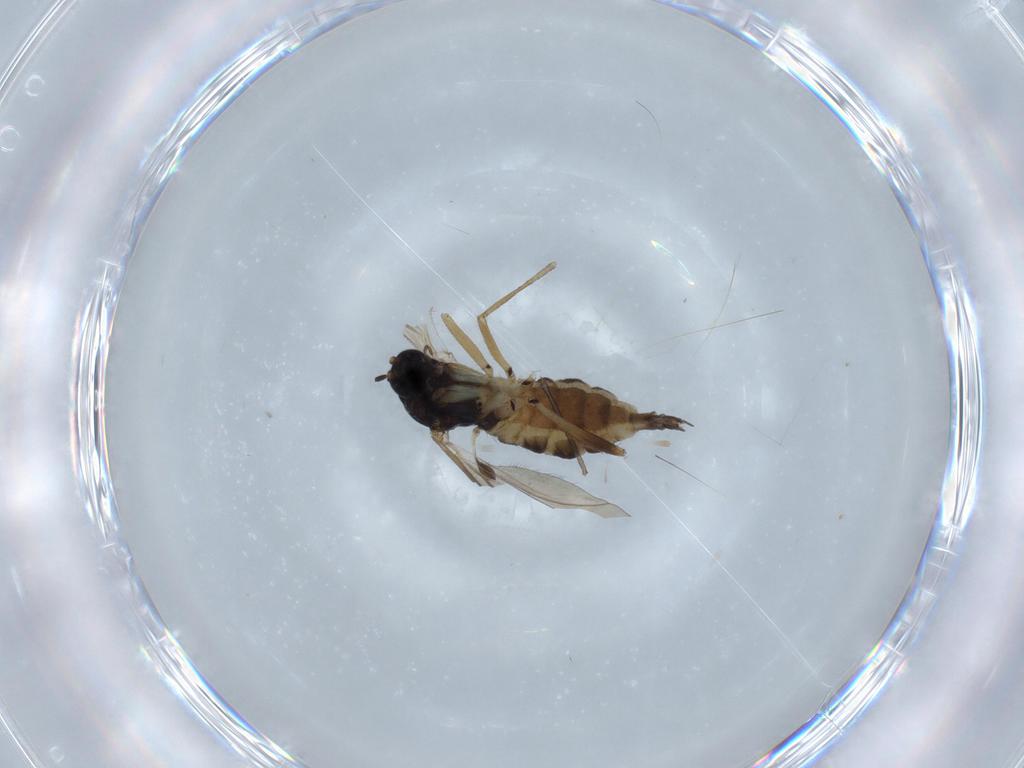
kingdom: Animalia
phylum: Arthropoda
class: Insecta
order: Diptera
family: Sciaridae
